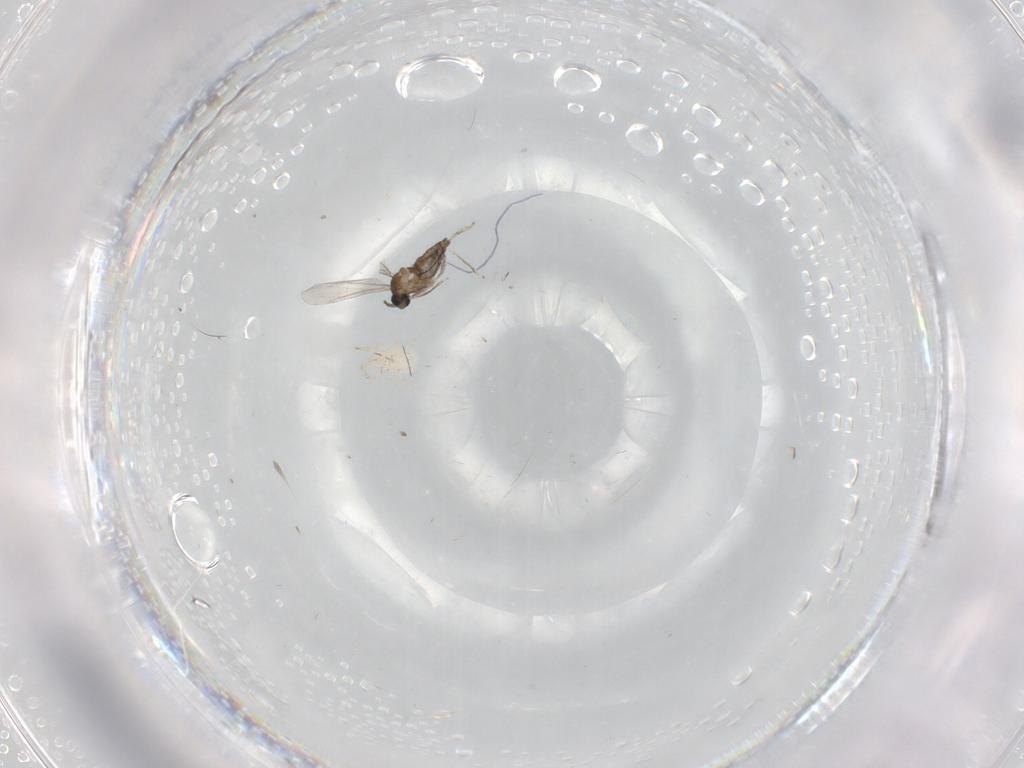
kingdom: Animalia
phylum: Arthropoda
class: Insecta
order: Diptera
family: Cecidomyiidae
